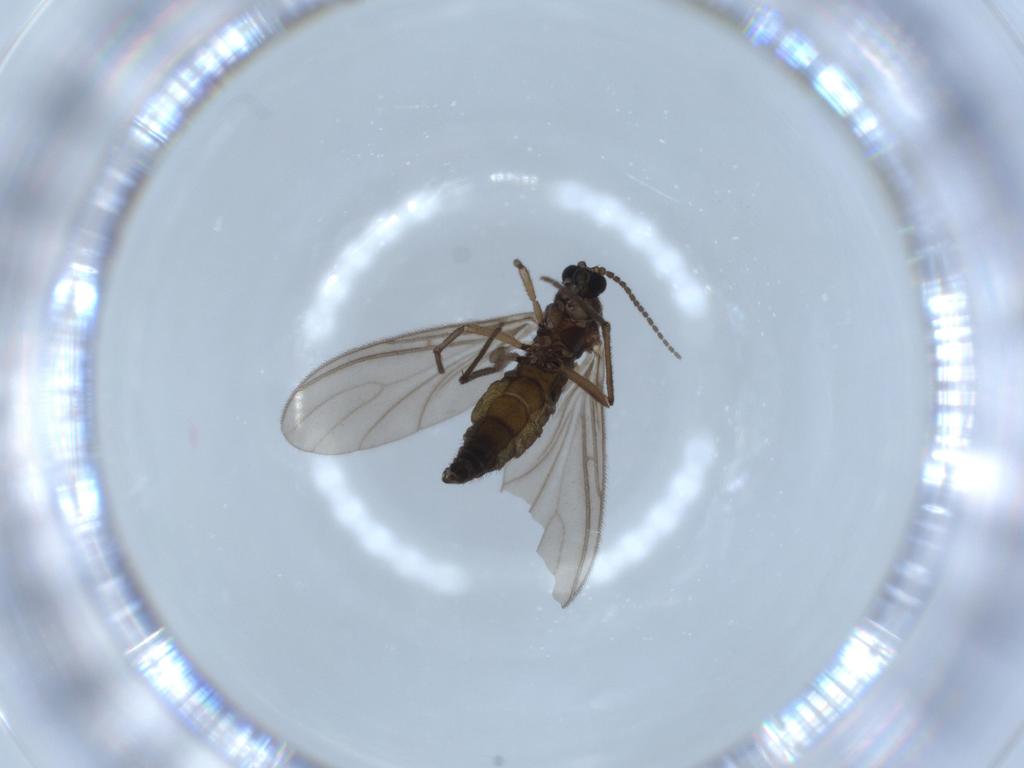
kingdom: Animalia
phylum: Arthropoda
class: Insecta
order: Diptera
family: Sciaridae
